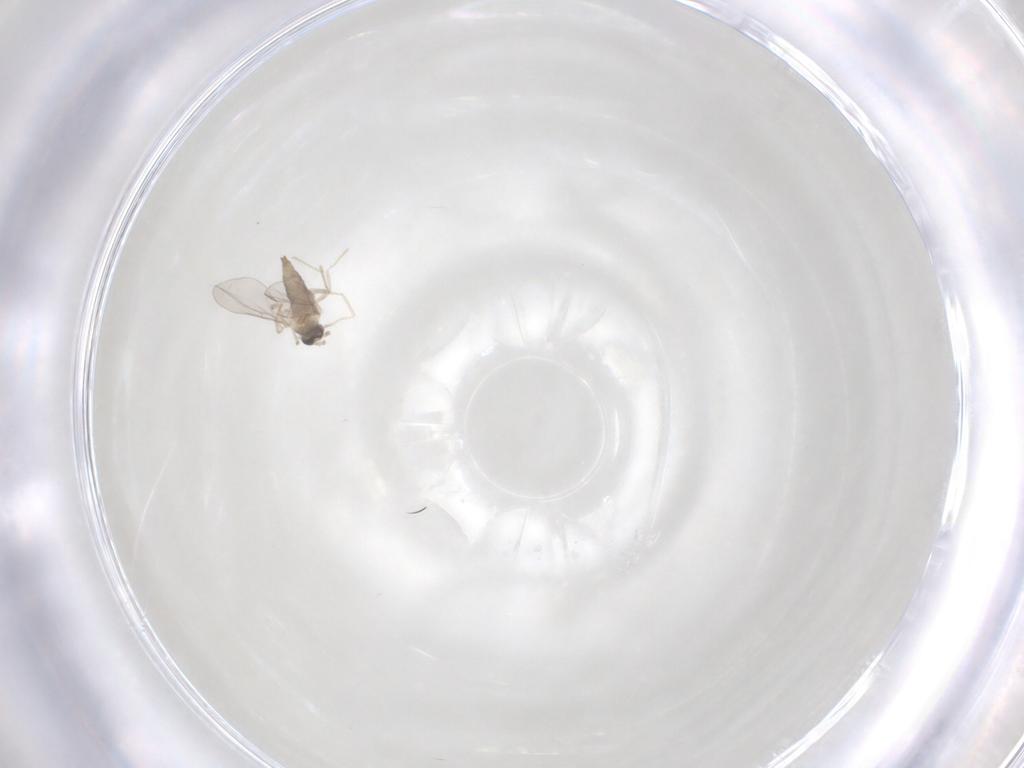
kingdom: Animalia
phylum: Arthropoda
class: Insecta
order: Diptera
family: Cecidomyiidae
